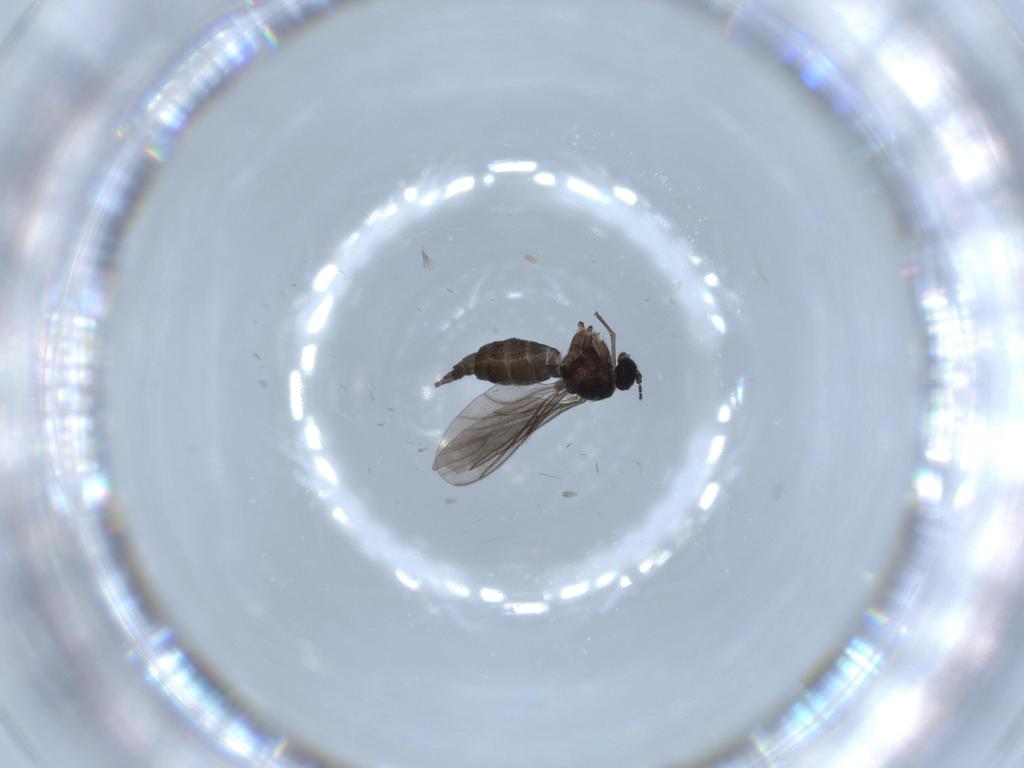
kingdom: Animalia
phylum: Arthropoda
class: Insecta
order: Diptera
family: Sciaridae
